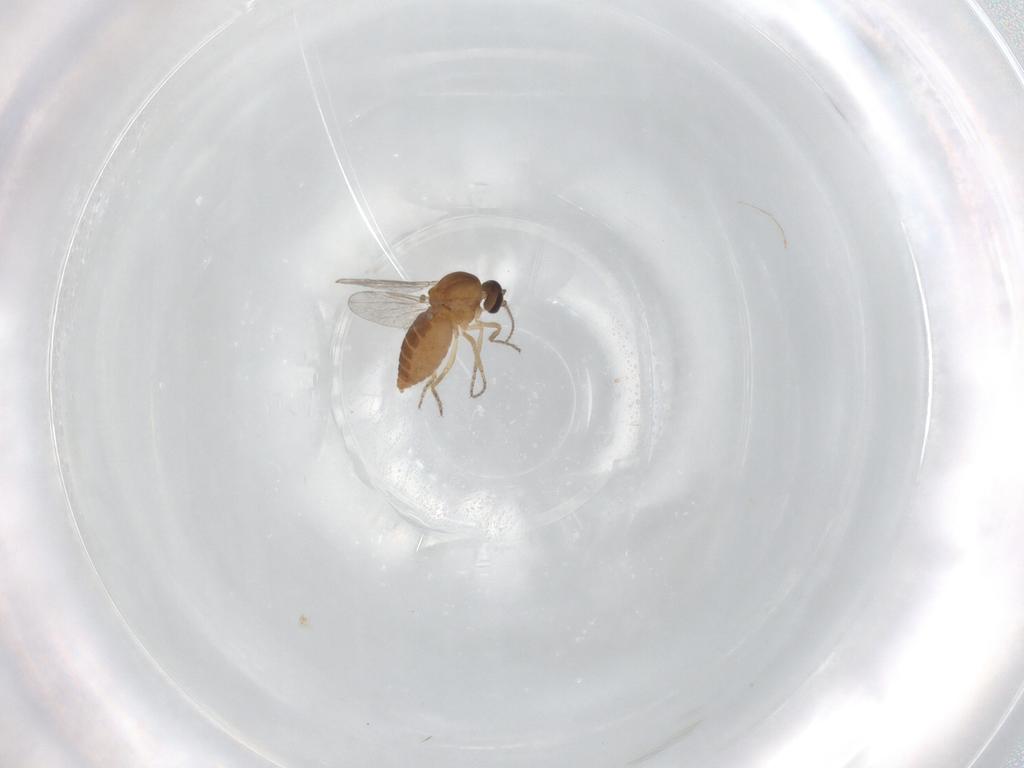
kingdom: Animalia
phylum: Arthropoda
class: Insecta
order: Diptera
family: Ceratopogonidae
